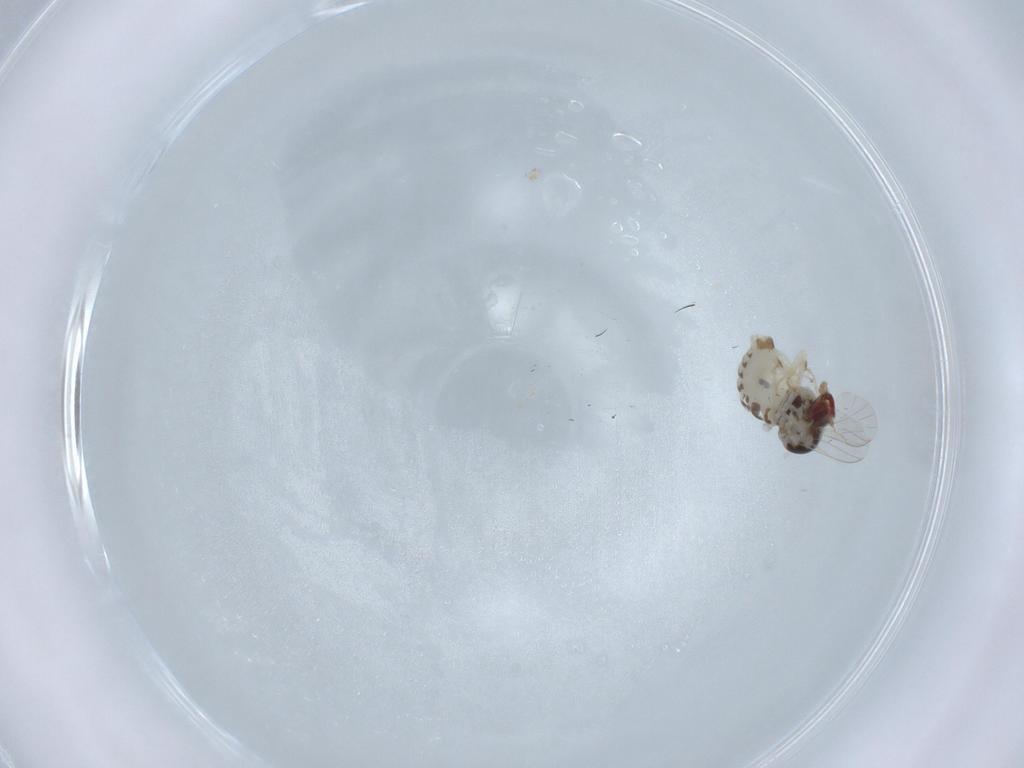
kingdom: Animalia
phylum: Arthropoda
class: Insecta
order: Diptera
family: Bombyliidae
